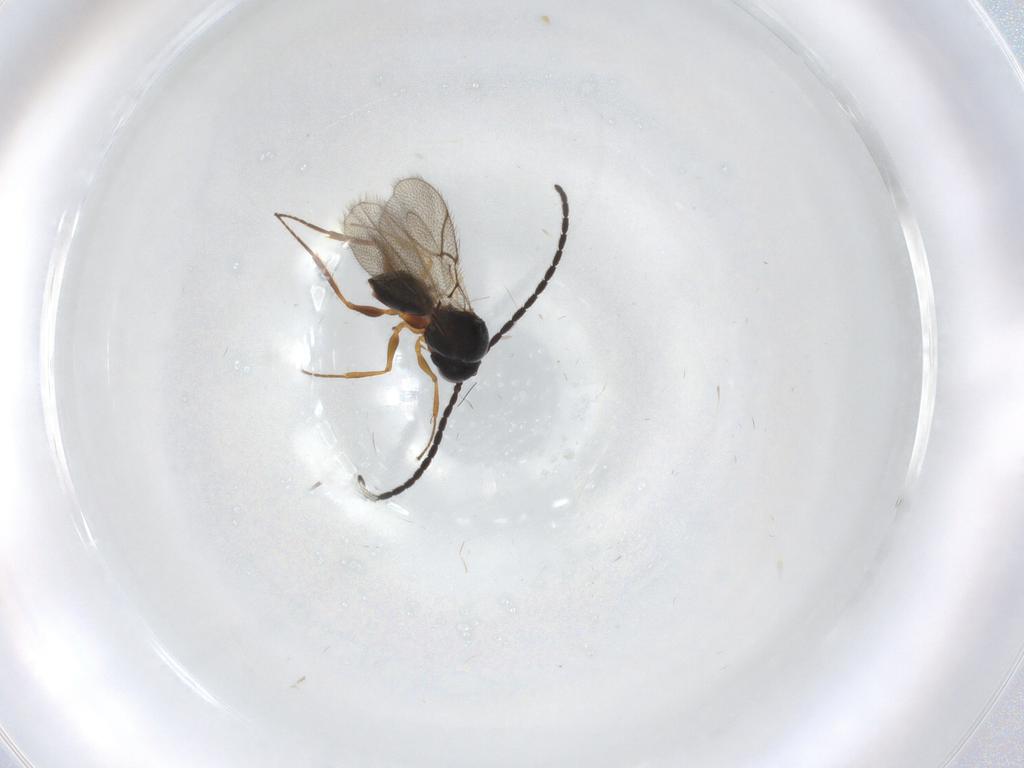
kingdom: Animalia
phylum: Arthropoda
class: Insecta
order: Hymenoptera
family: Figitidae
